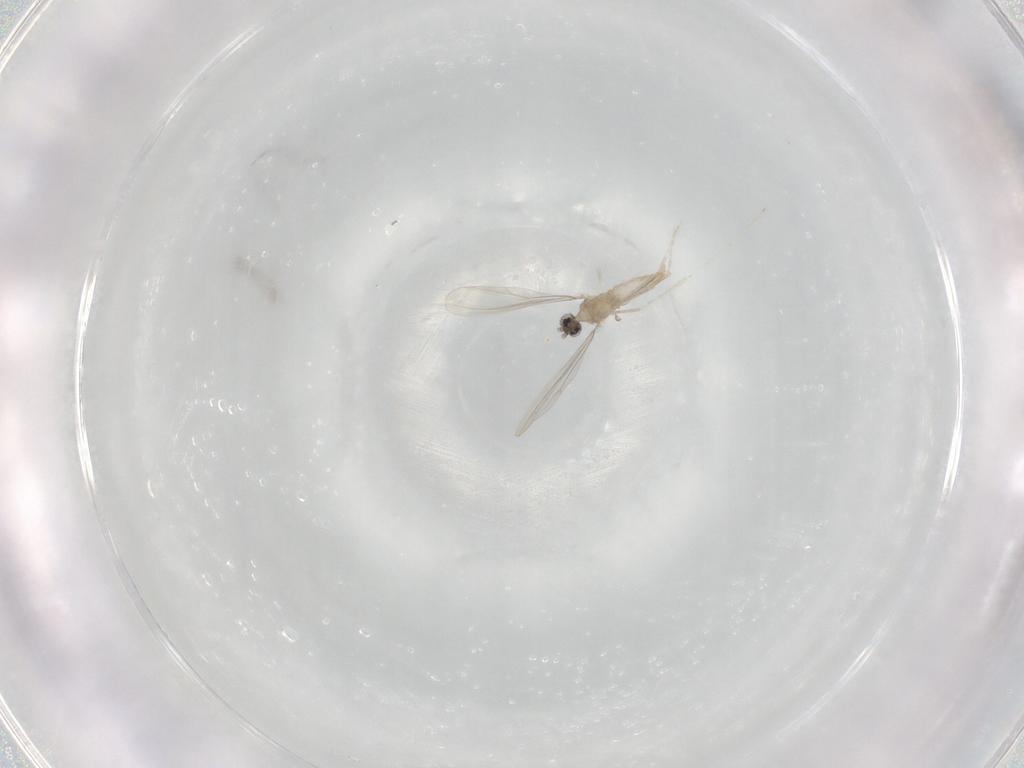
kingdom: Animalia
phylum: Arthropoda
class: Insecta
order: Diptera
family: Cecidomyiidae
